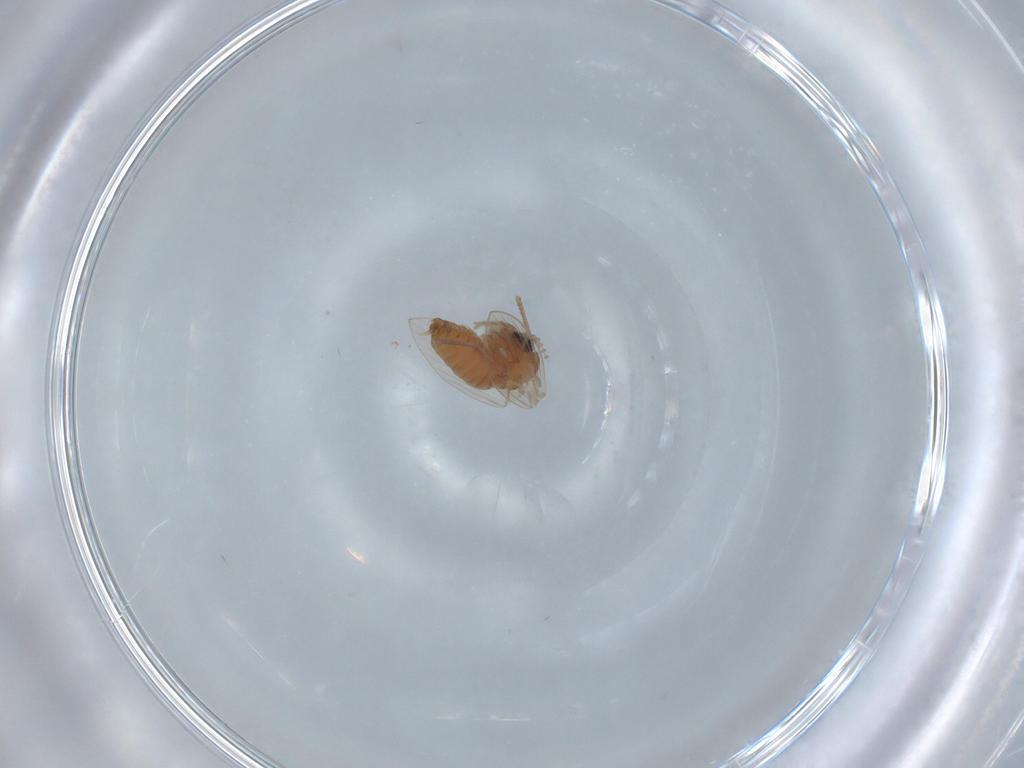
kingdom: Animalia
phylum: Arthropoda
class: Insecta
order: Diptera
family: Psychodidae
